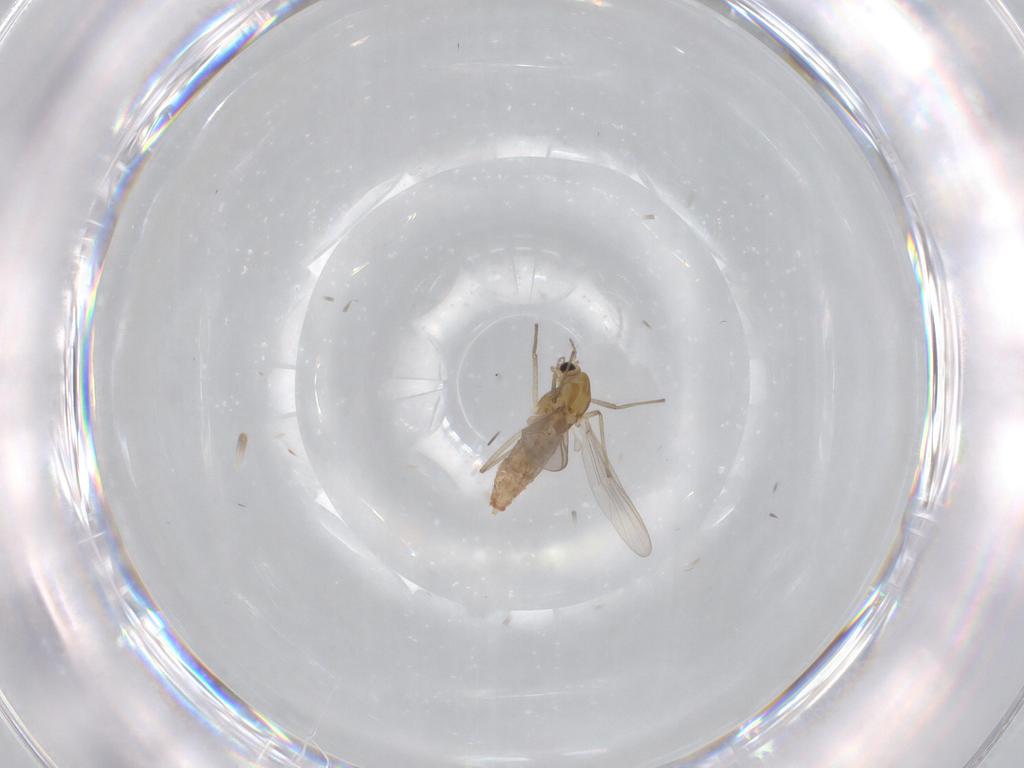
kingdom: Animalia
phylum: Arthropoda
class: Insecta
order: Diptera
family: Chironomidae
